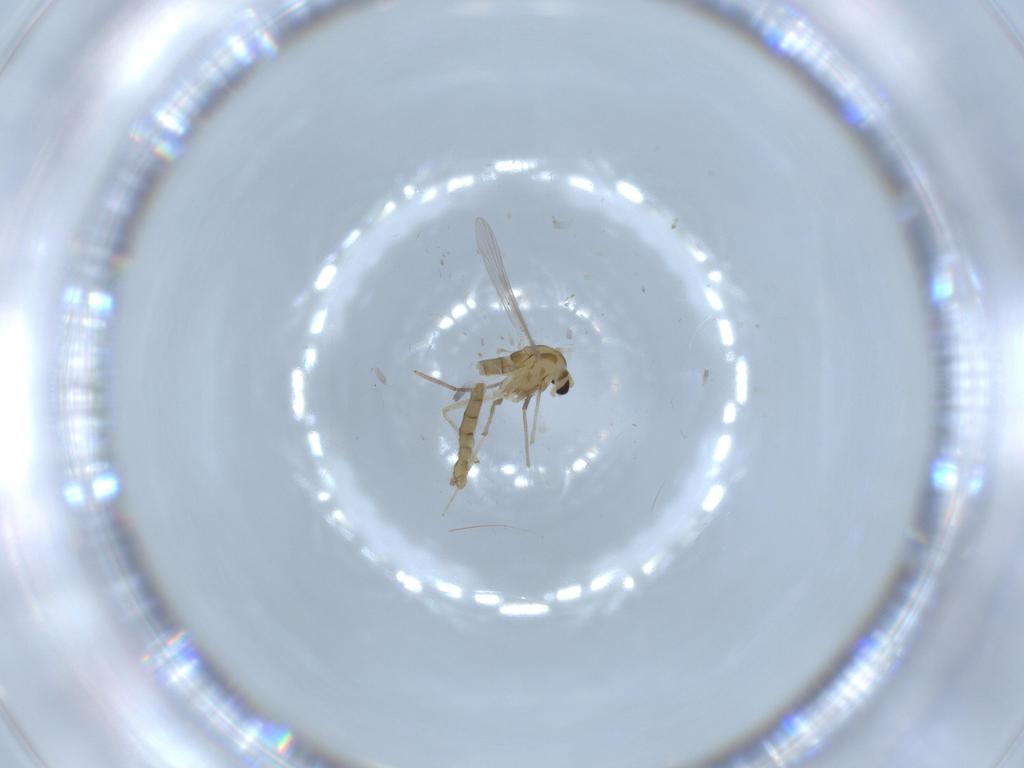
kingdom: Animalia
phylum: Arthropoda
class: Insecta
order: Diptera
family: Chironomidae
